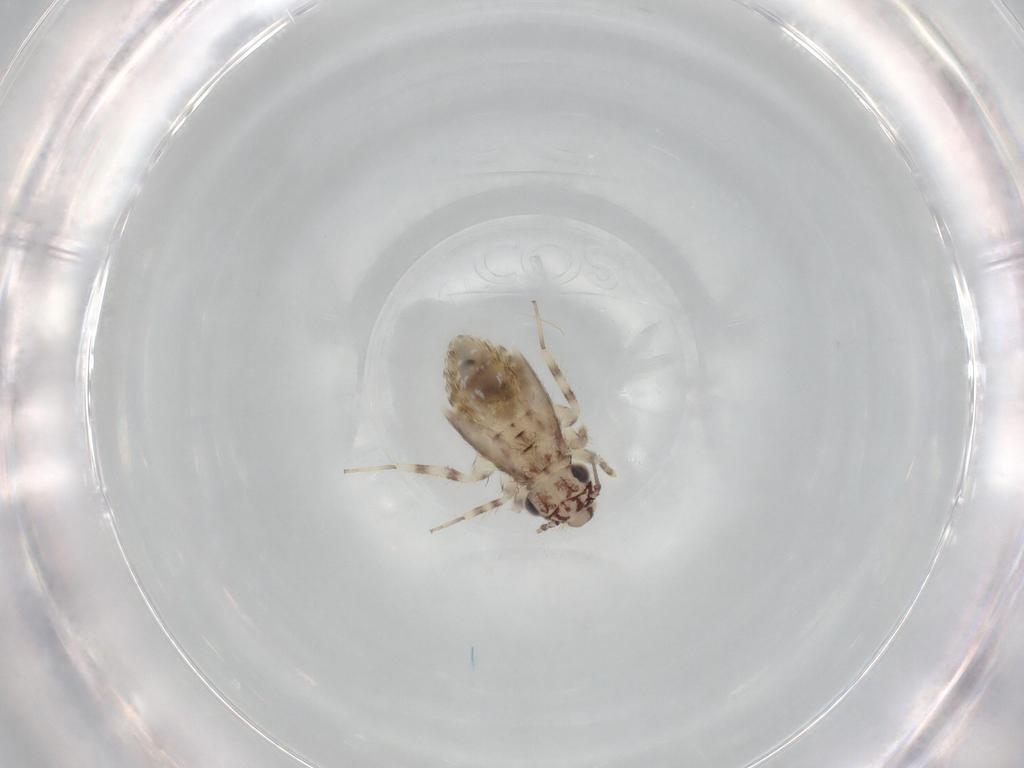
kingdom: Animalia
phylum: Arthropoda
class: Insecta
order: Psocodea
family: Lepidopsocidae
